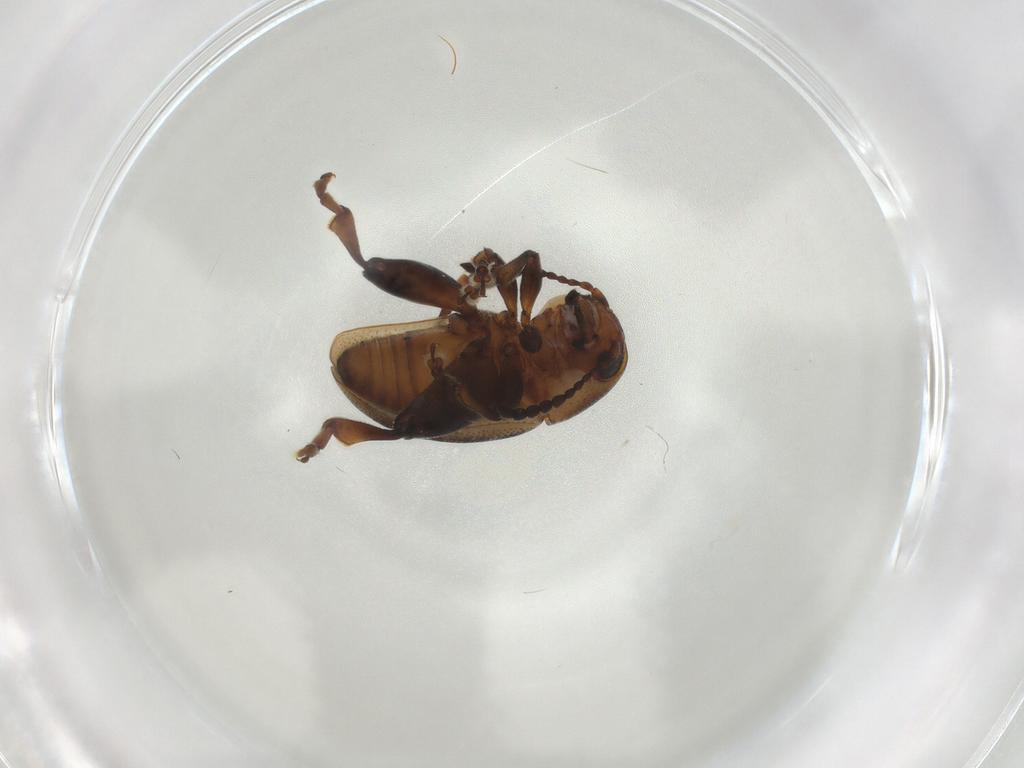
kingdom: Animalia
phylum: Arthropoda
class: Insecta
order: Coleoptera
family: Chrysomelidae
